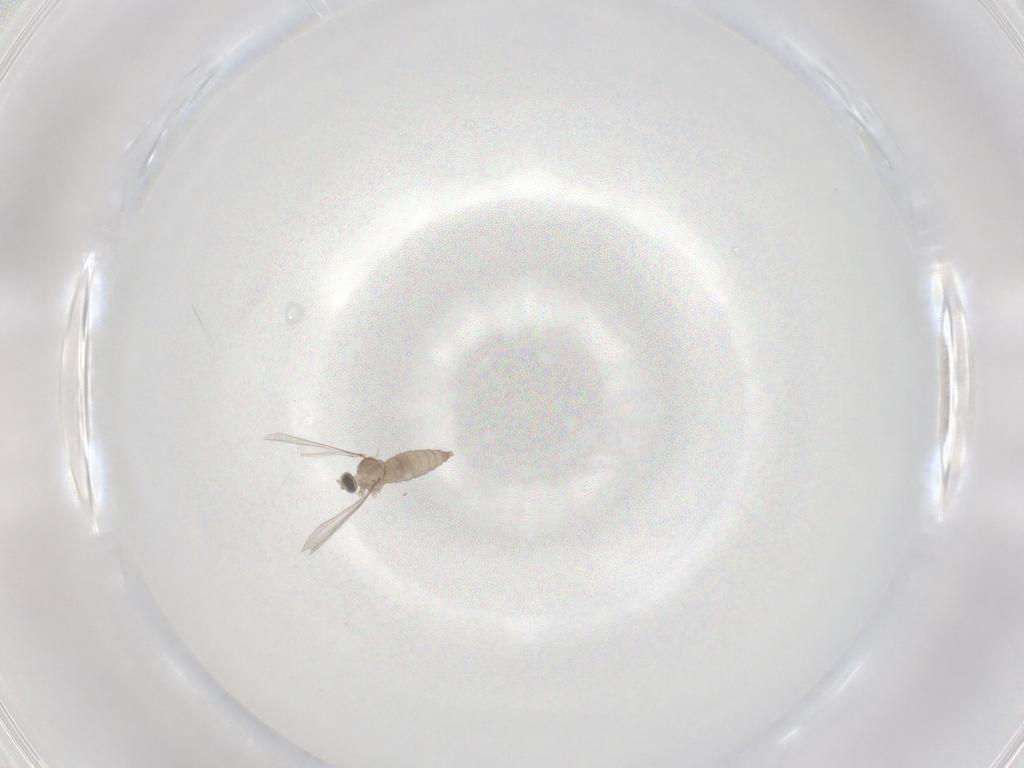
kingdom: Animalia
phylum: Arthropoda
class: Insecta
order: Diptera
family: Cecidomyiidae
